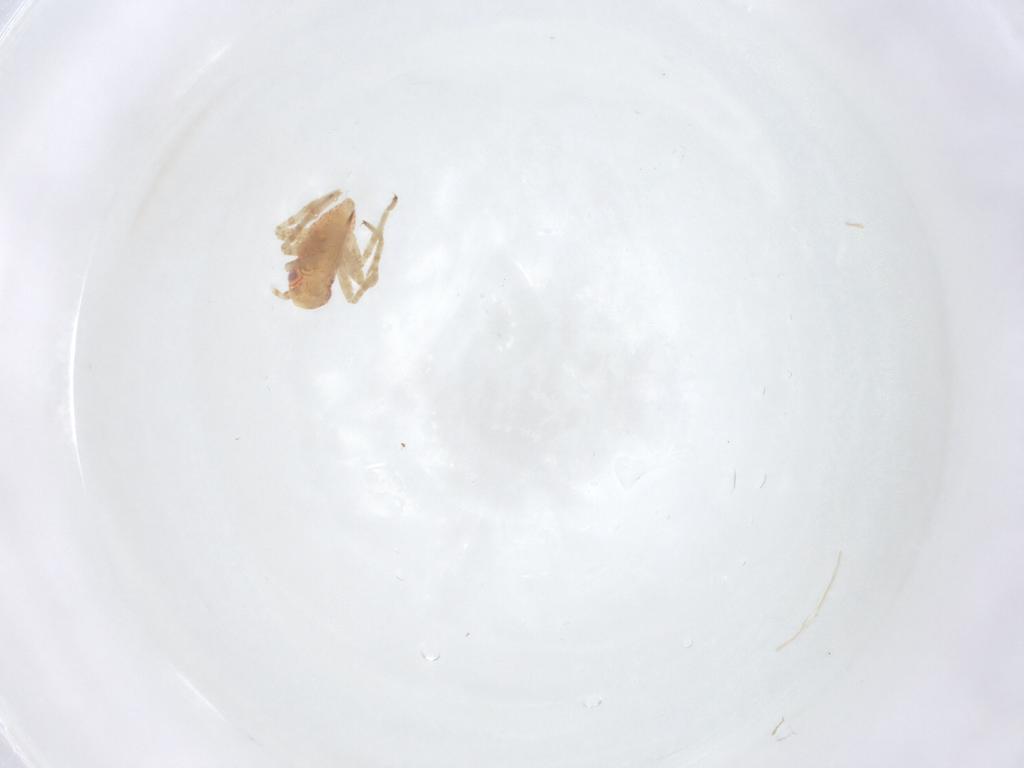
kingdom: Animalia
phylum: Arthropoda
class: Insecta
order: Hemiptera
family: Miridae
